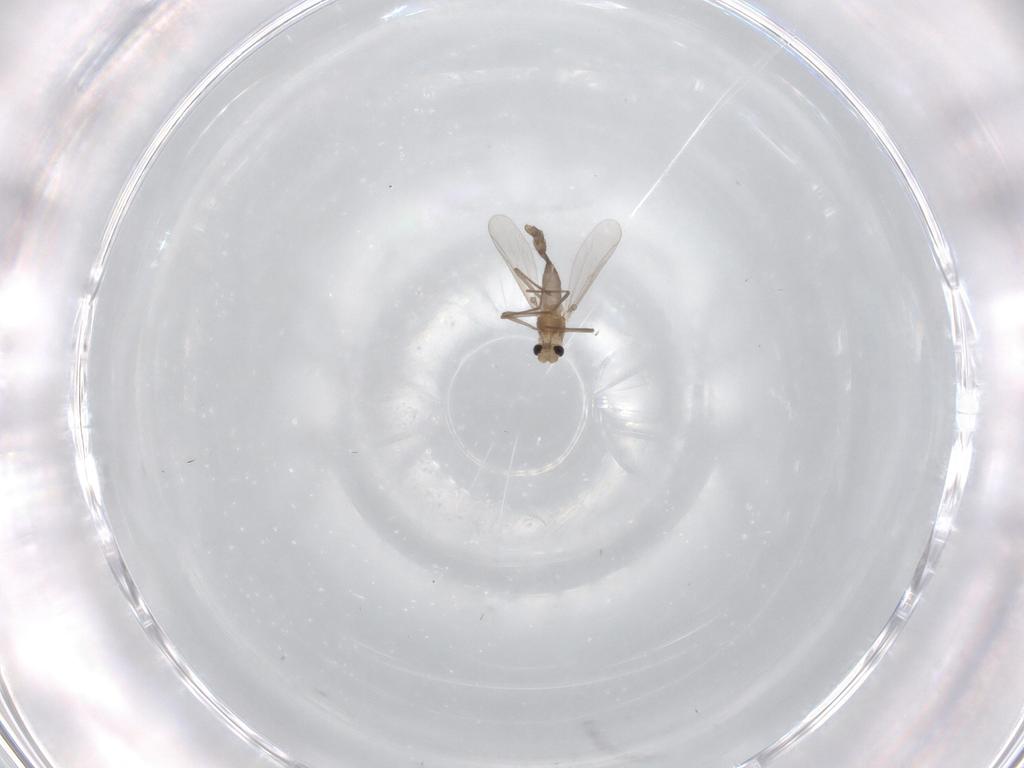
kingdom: Animalia
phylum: Arthropoda
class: Insecta
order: Diptera
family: Chironomidae
